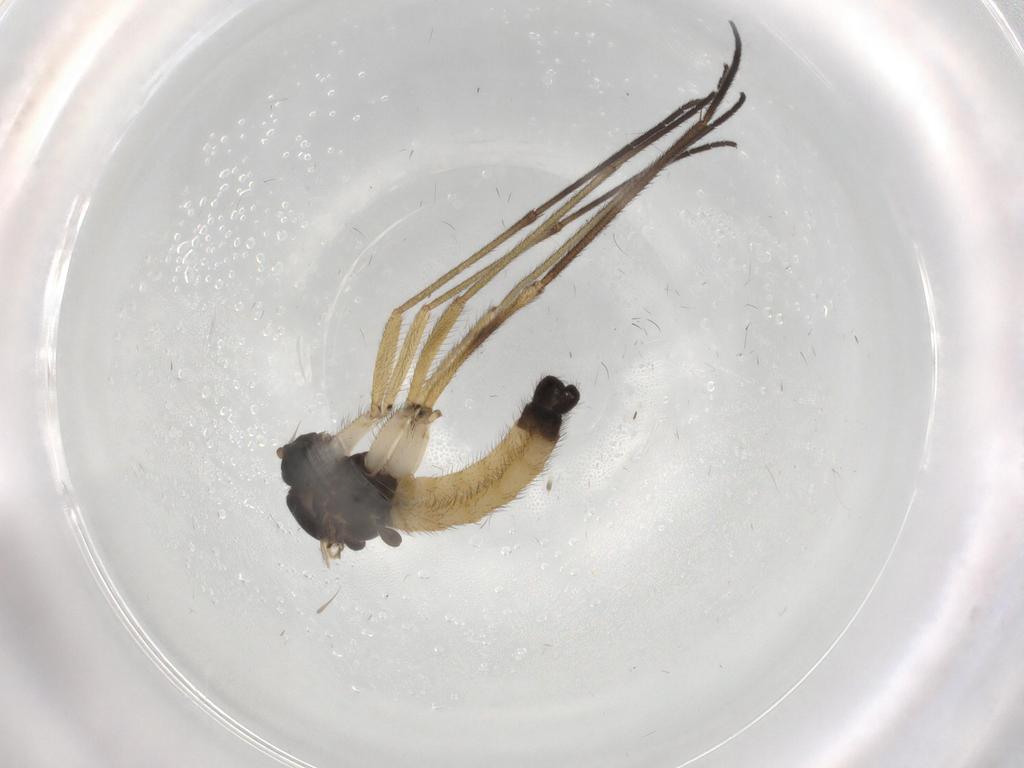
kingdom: Animalia
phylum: Arthropoda
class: Insecta
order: Diptera
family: Sciaridae
